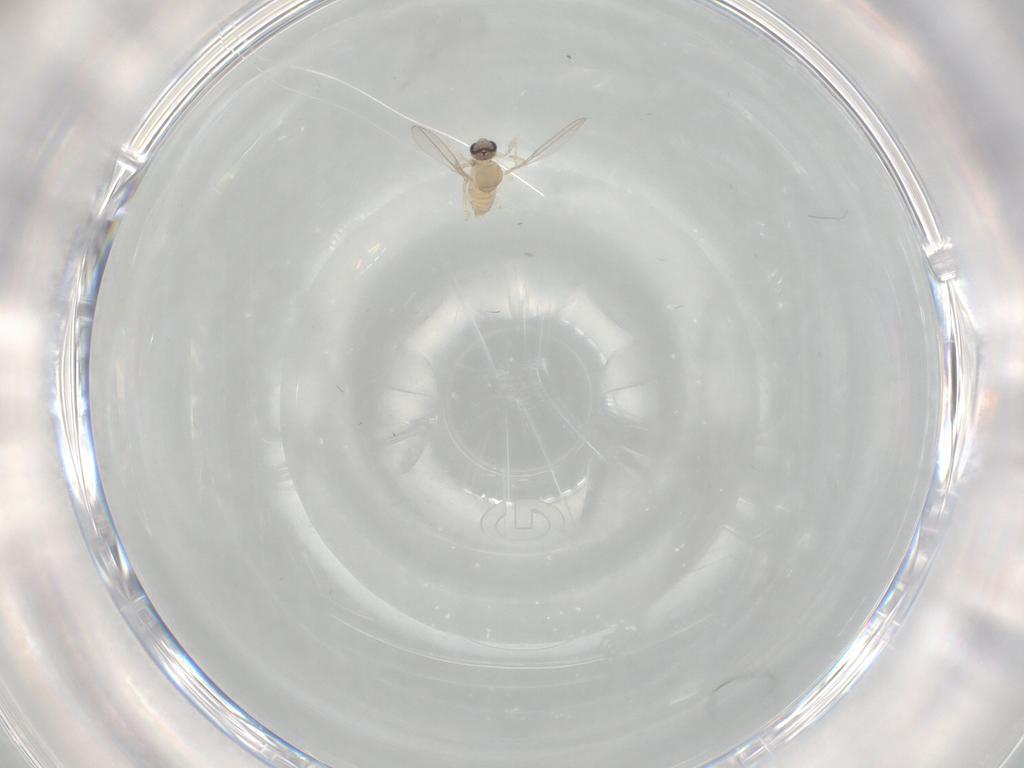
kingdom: Animalia
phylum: Arthropoda
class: Insecta
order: Diptera
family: Cecidomyiidae
